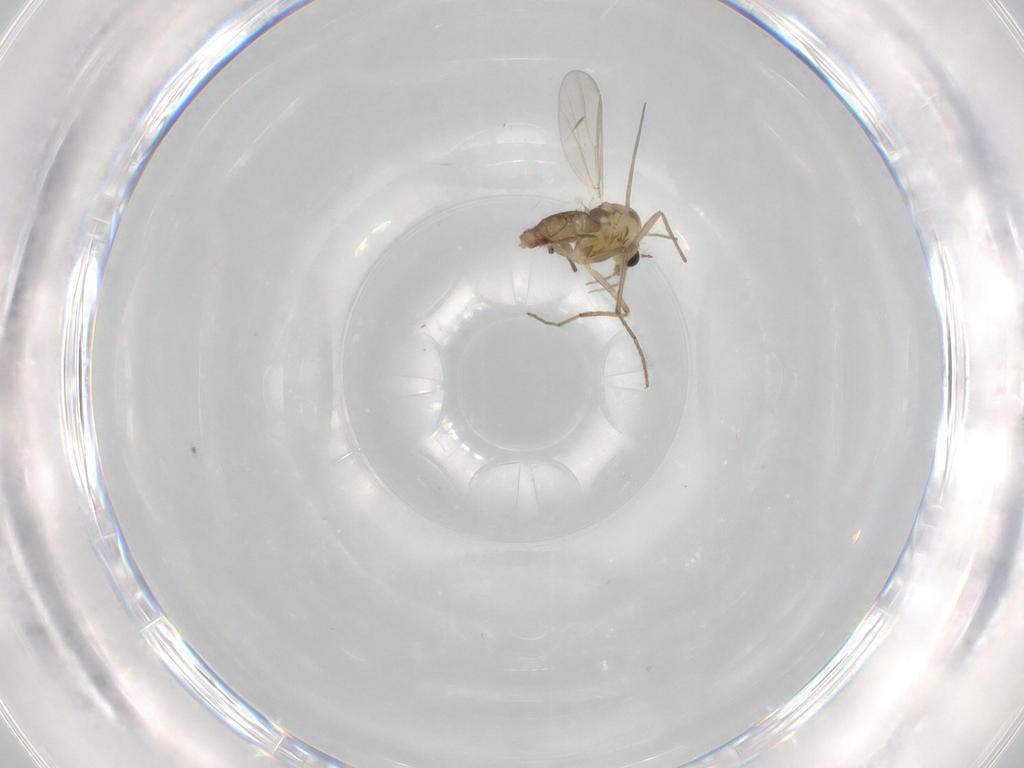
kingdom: Animalia
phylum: Arthropoda
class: Insecta
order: Diptera
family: Chironomidae
